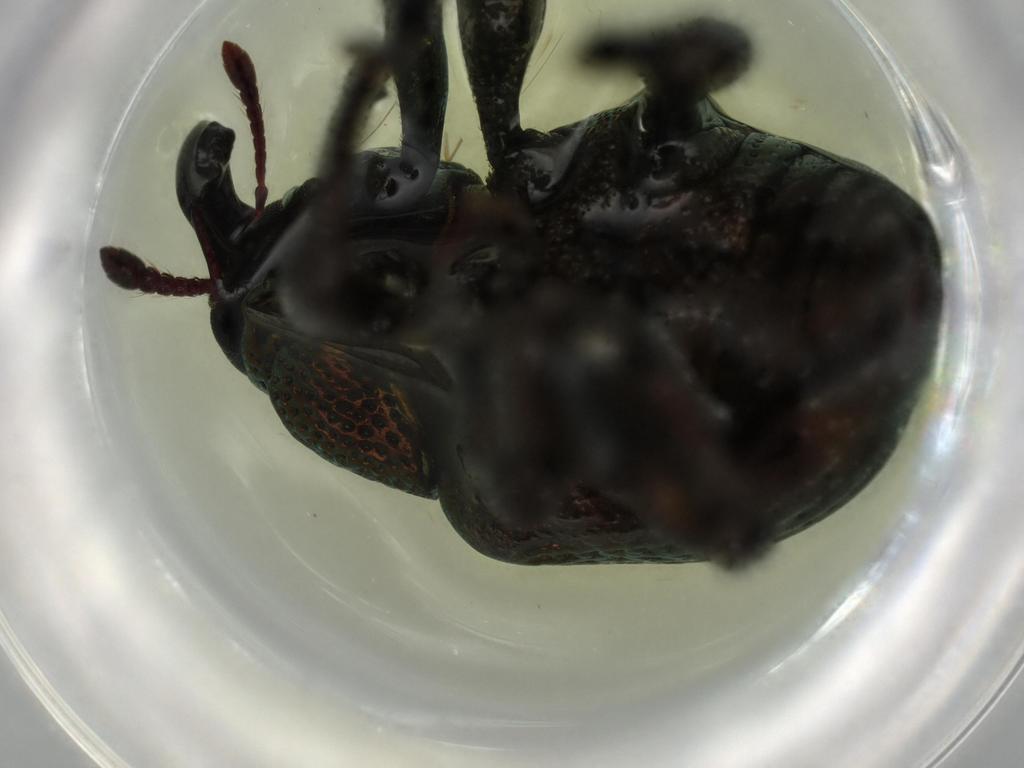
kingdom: Animalia
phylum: Arthropoda
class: Insecta
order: Coleoptera
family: Curculionidae
